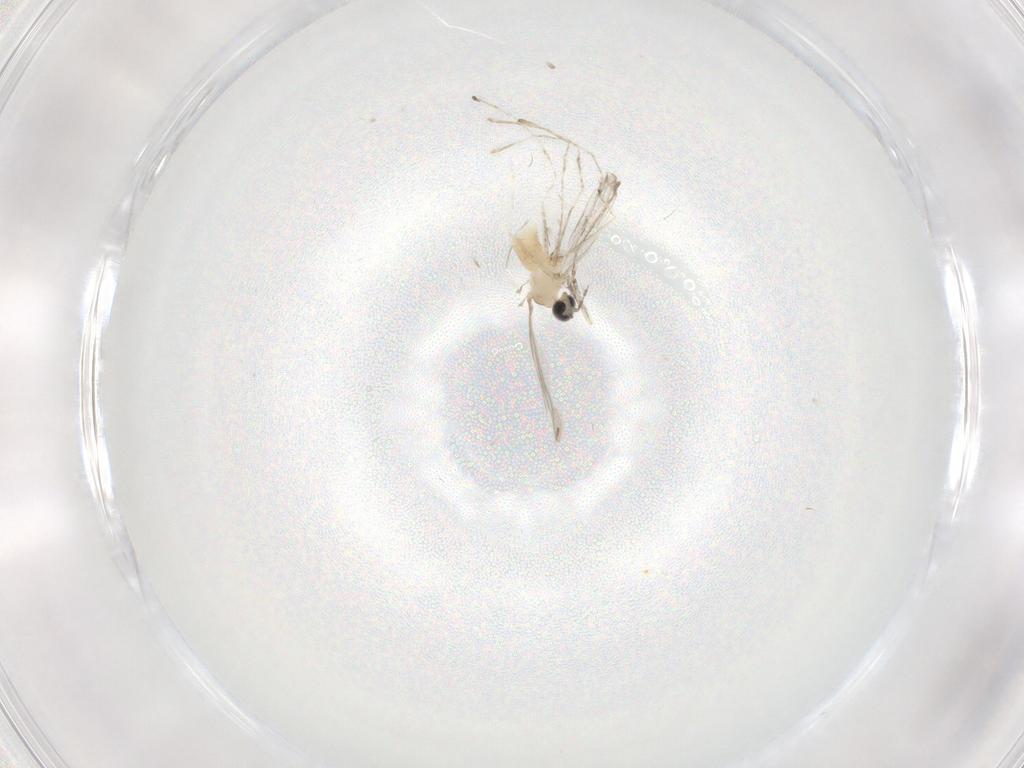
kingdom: Animalia
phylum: Arthropoda
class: Insecta
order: Diptera
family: Cecidomyiidae
